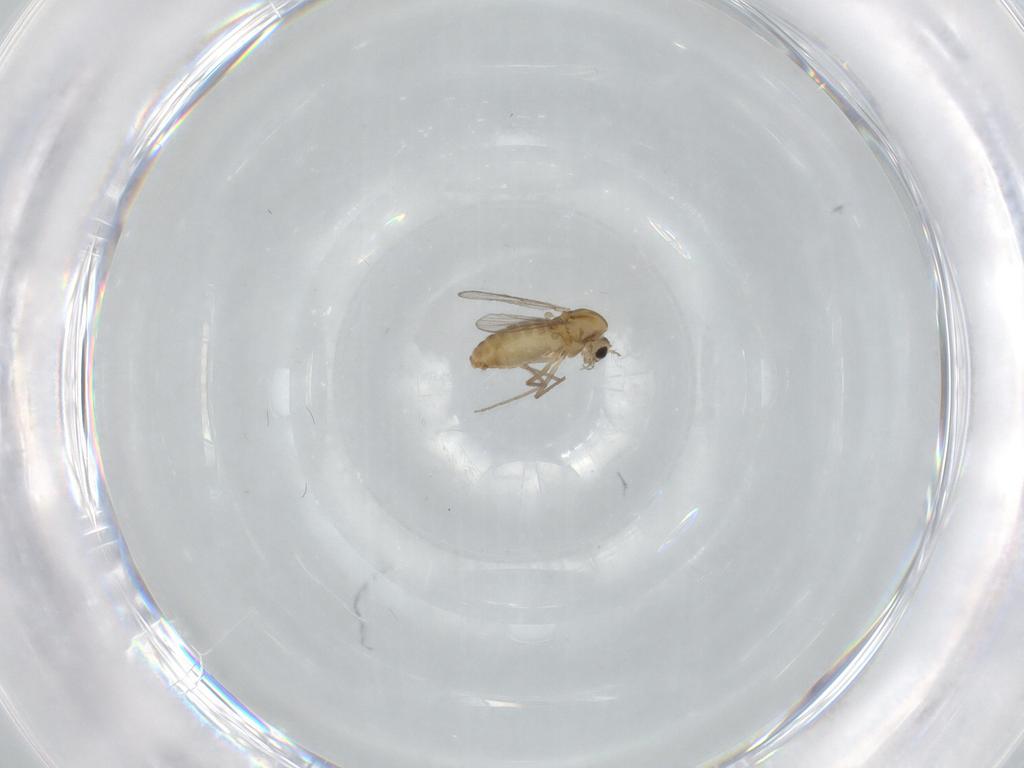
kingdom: Animalia
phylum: Arthropoda
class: Insecta
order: Diptera
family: Chironomidae
